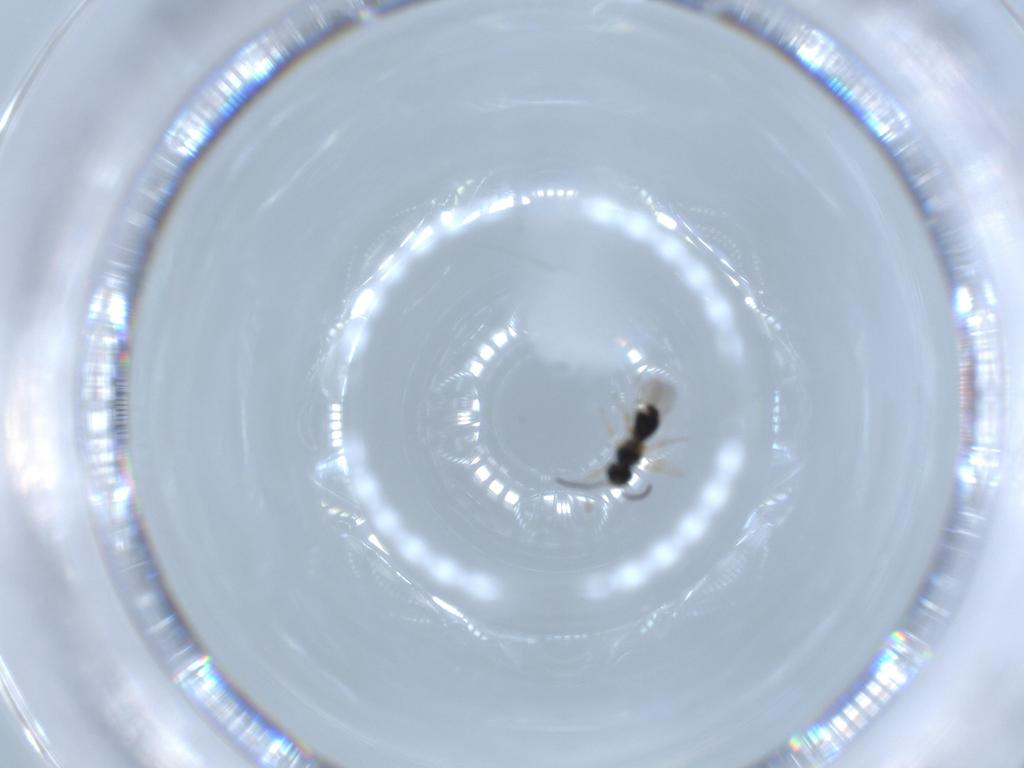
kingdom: Animalia
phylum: Arthropoda
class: Insecta
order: Hymenoptera
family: Scelionidae
